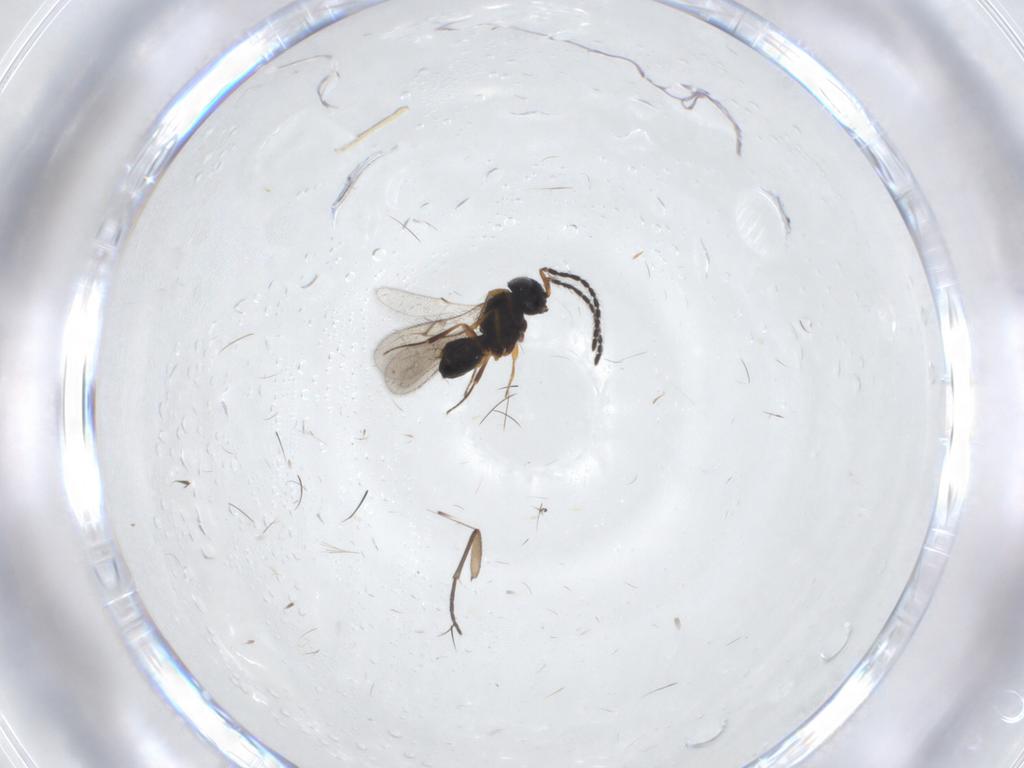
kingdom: Animalia
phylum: Arthropoda
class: Insecta
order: Hymenoptera
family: Scelionidae
